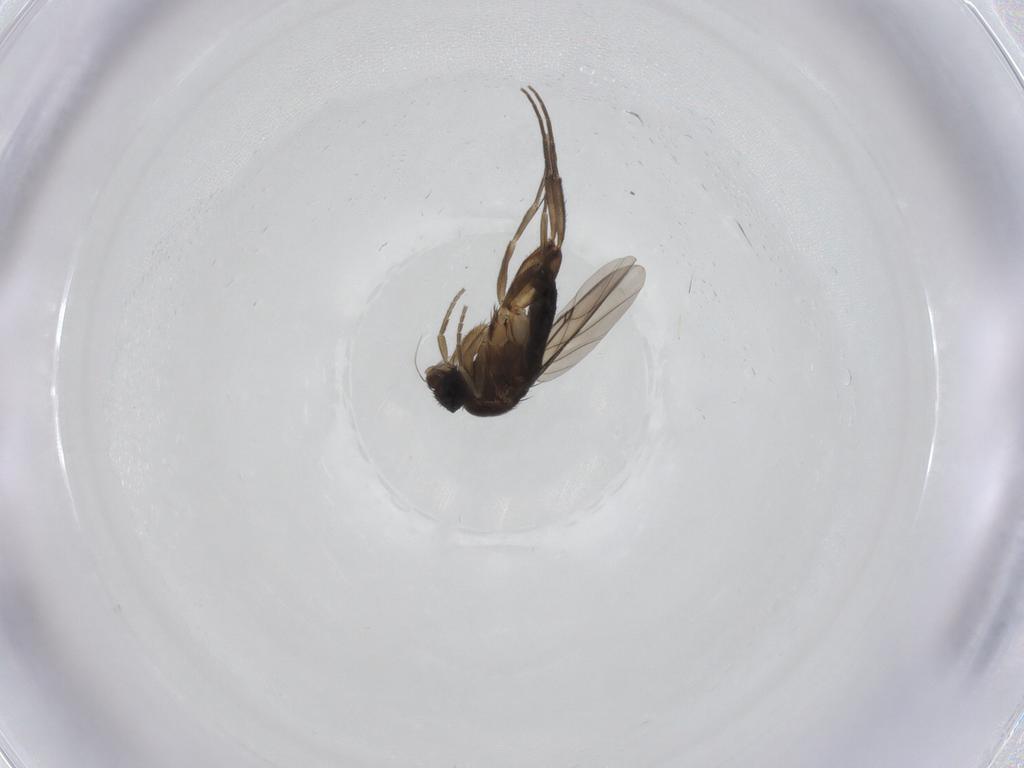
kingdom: Animalia
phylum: Arthropoda
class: Insecta
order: Diptera
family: Phoridae
